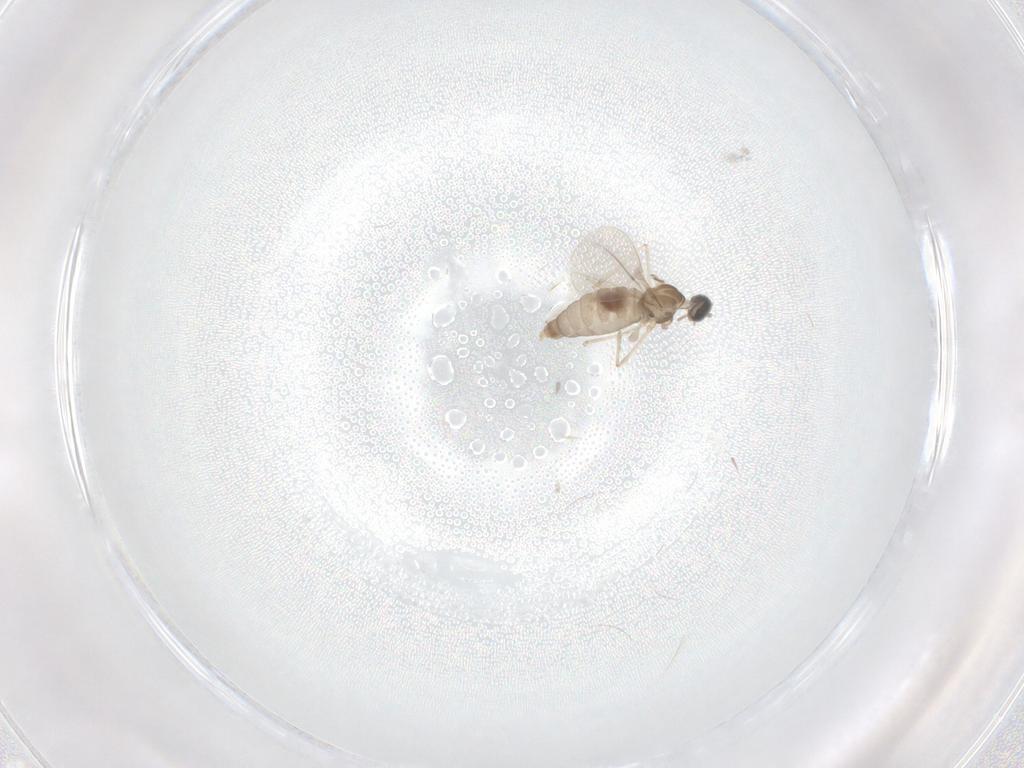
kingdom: Animalia
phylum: Arthropoda
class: Insecta
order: Diptera
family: Cecidomyiidae
